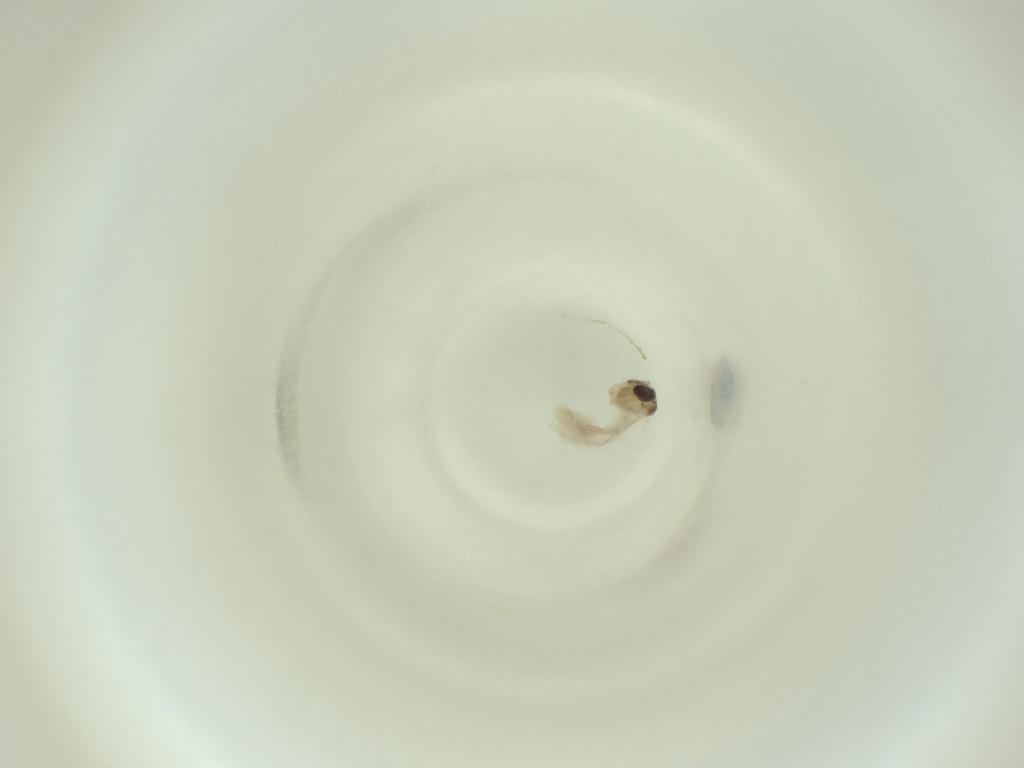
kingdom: Animalia
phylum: Arthropoda
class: Insecta
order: Diptera
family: Cecidomyiidae
